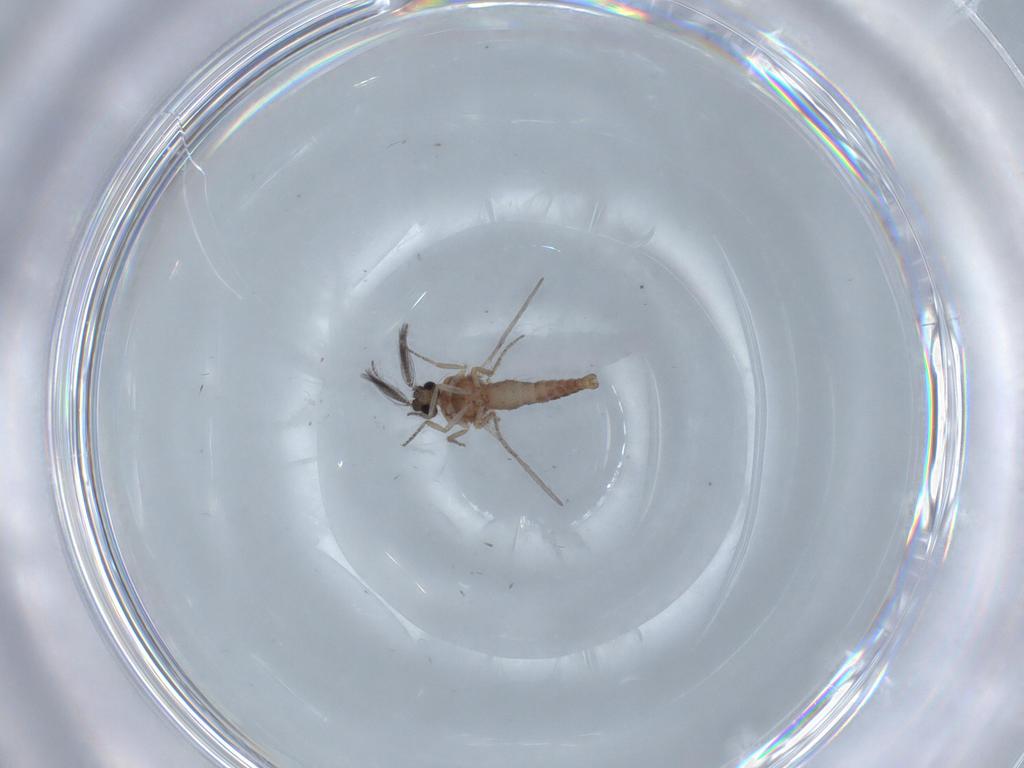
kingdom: Animalia
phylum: Arthropoda
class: Insecta
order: Diptera
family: Ceratopogonidae
